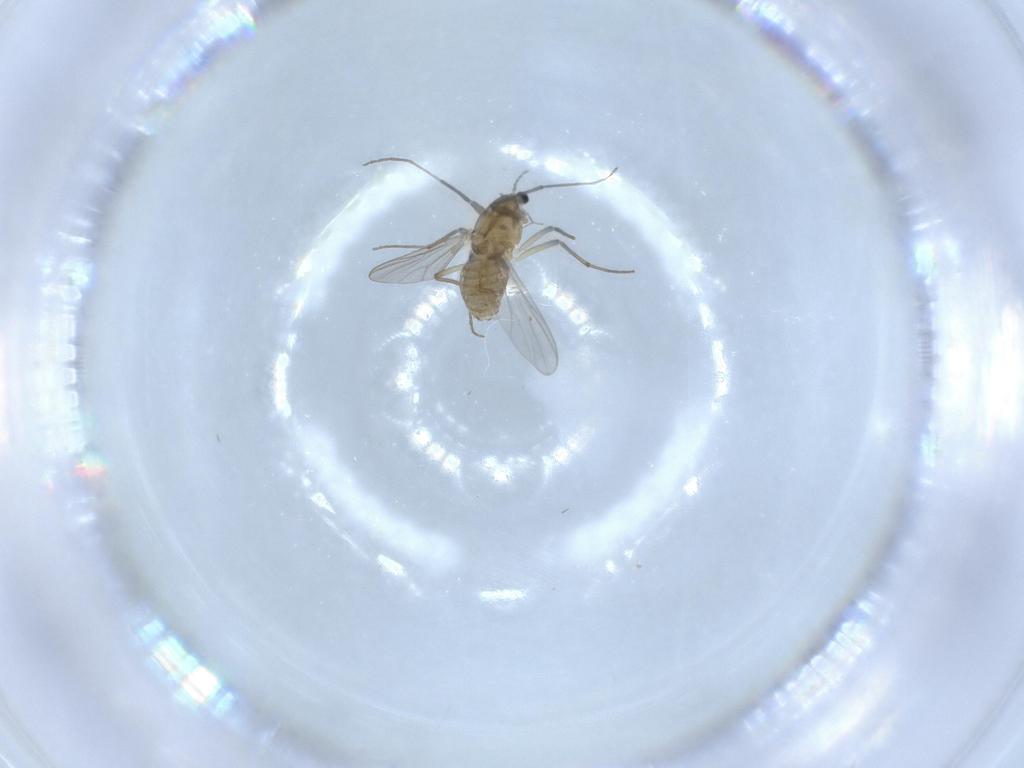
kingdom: Animalia
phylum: Arthropoda
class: Insecta
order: Diptera
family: Chironomidae
